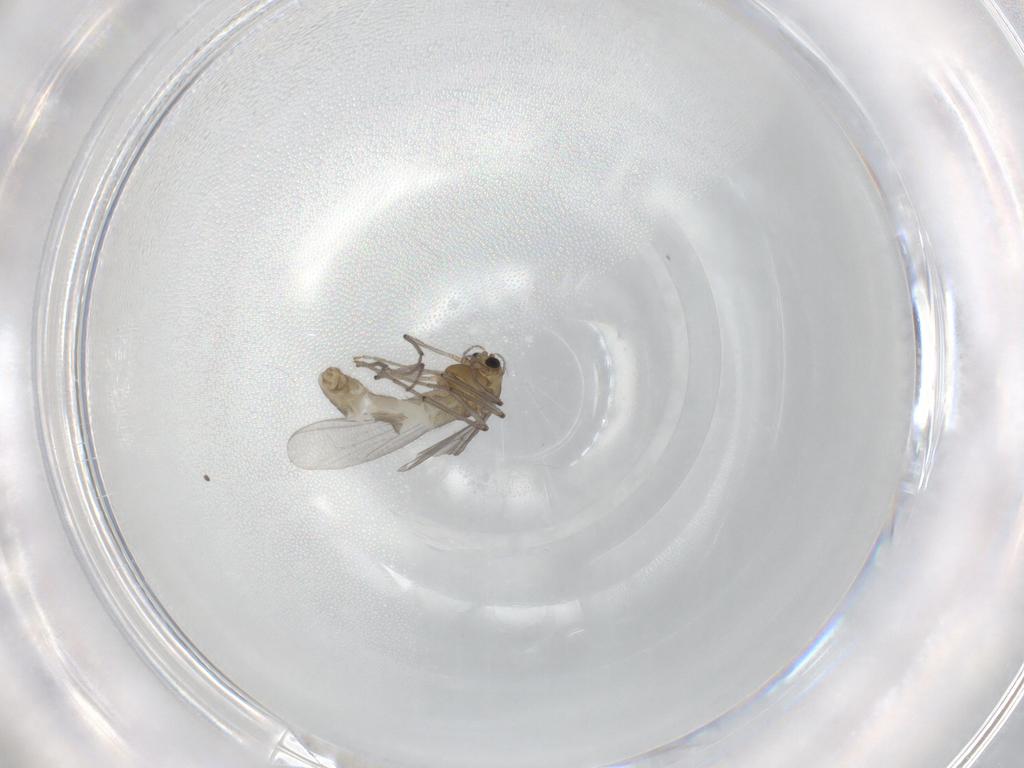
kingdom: Animalia
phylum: Arthropoda
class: Insecta
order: Diptera
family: Chironomidae
